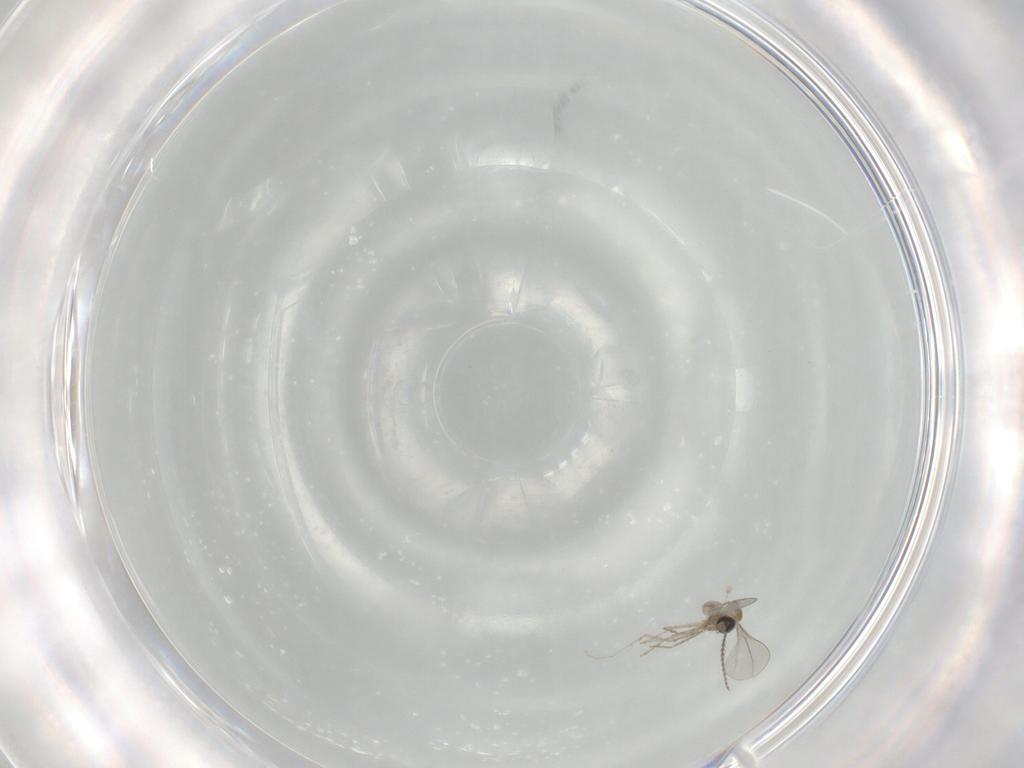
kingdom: Animalia
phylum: Arthropoda
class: Insecta
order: Diptera
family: Cecidomyiidae
